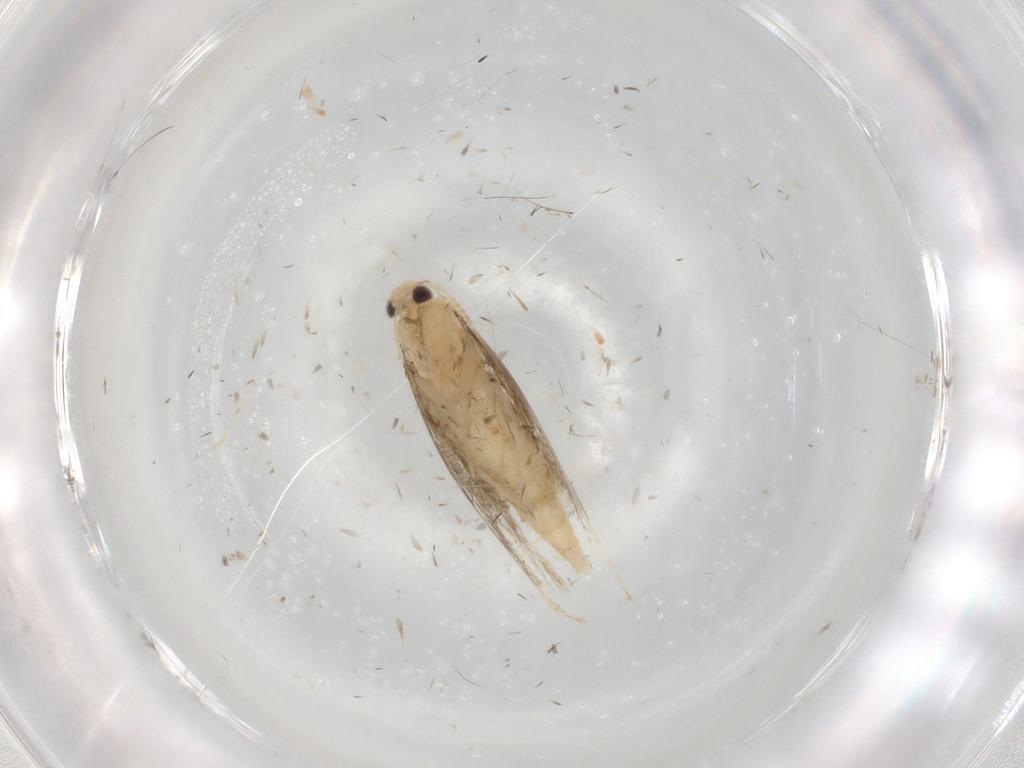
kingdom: Animalia
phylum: Arthropoda
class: Insecta
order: Lepidoptera
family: Gracillariidae
